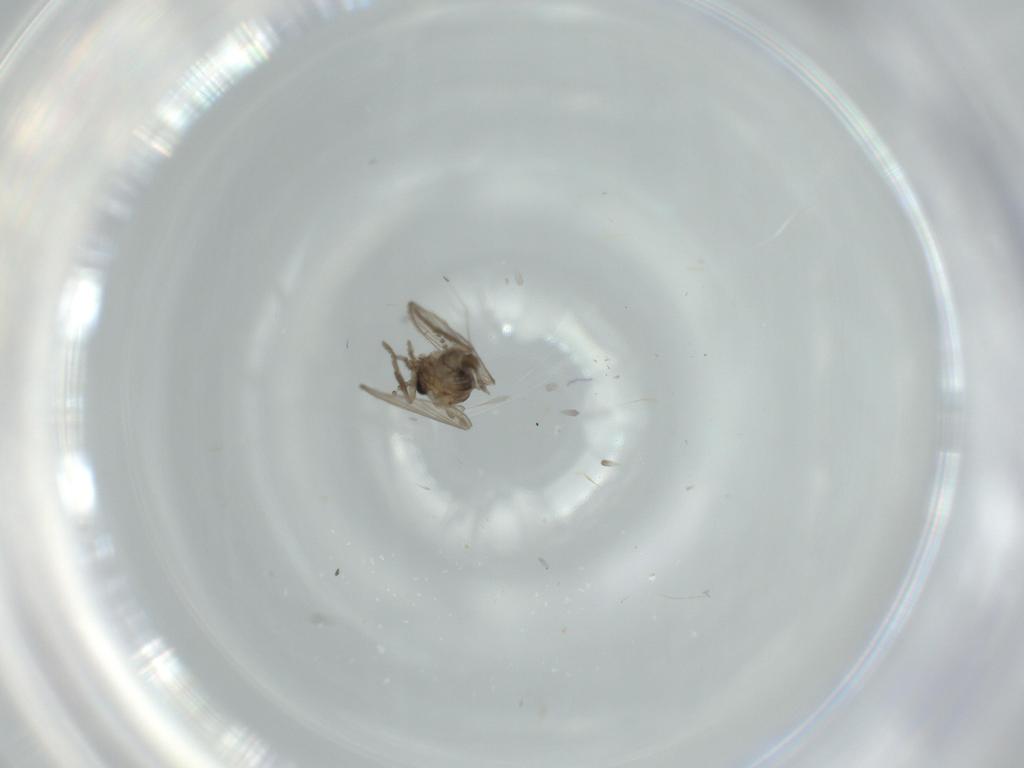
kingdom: Animalia
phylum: Arthropoda
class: Insecta
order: Diptera
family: Psychodidae
